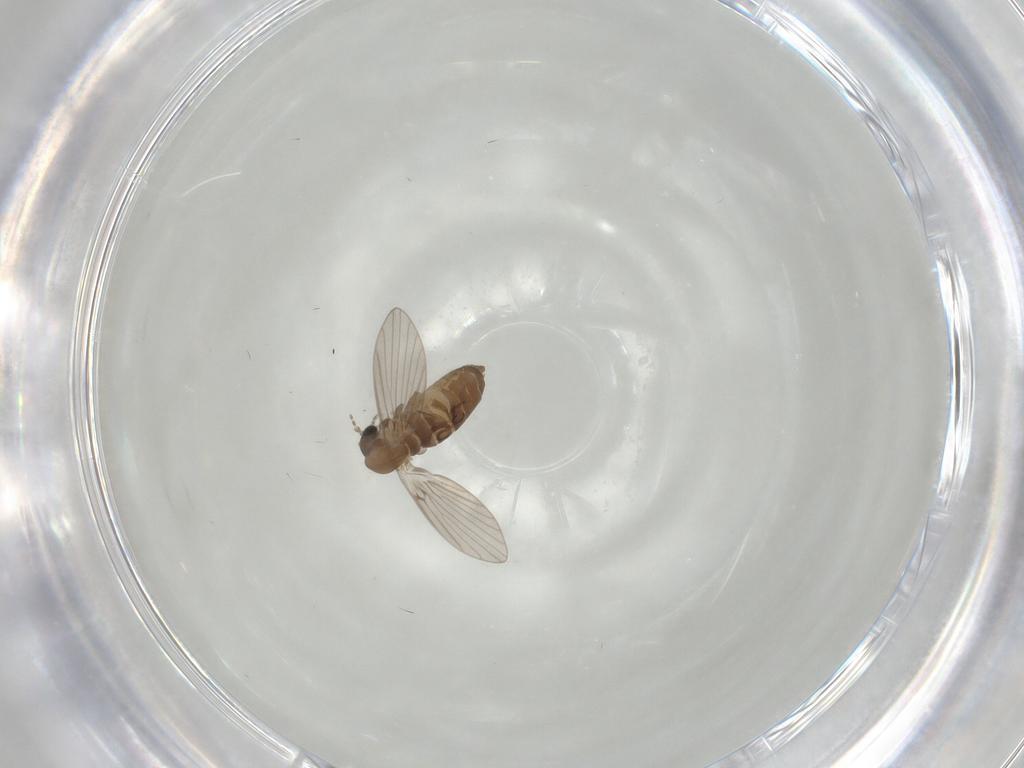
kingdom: Animalia
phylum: Arthropoda
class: Insecta
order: Diptera
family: Psychodidae
